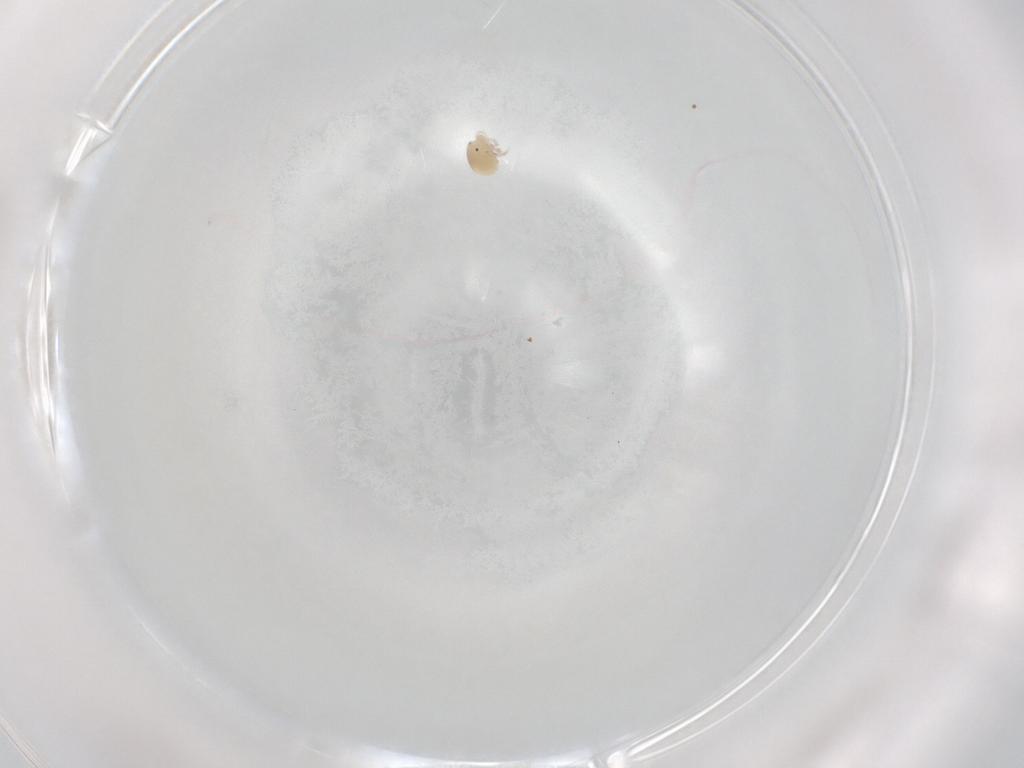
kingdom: Animalia
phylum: Arthropoda
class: Arachnida
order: Trombidiformes
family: Lebertiidae
